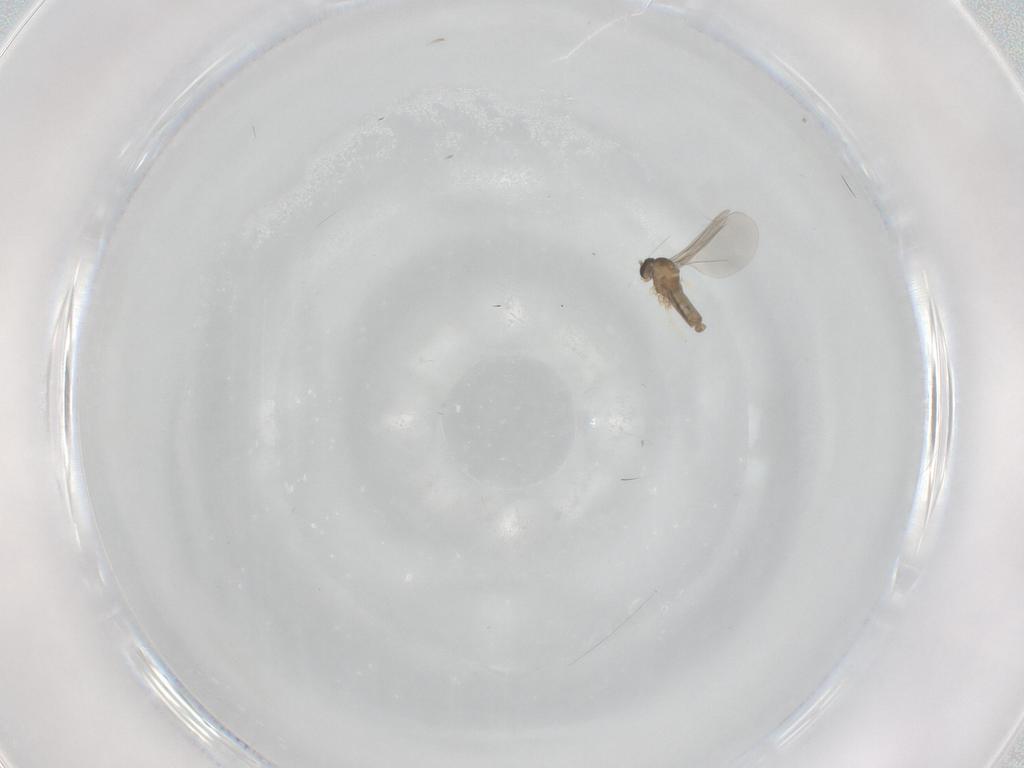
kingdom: Animalia
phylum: Arthropoda
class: Insecta
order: Diptera
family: Cecidomyiidae
